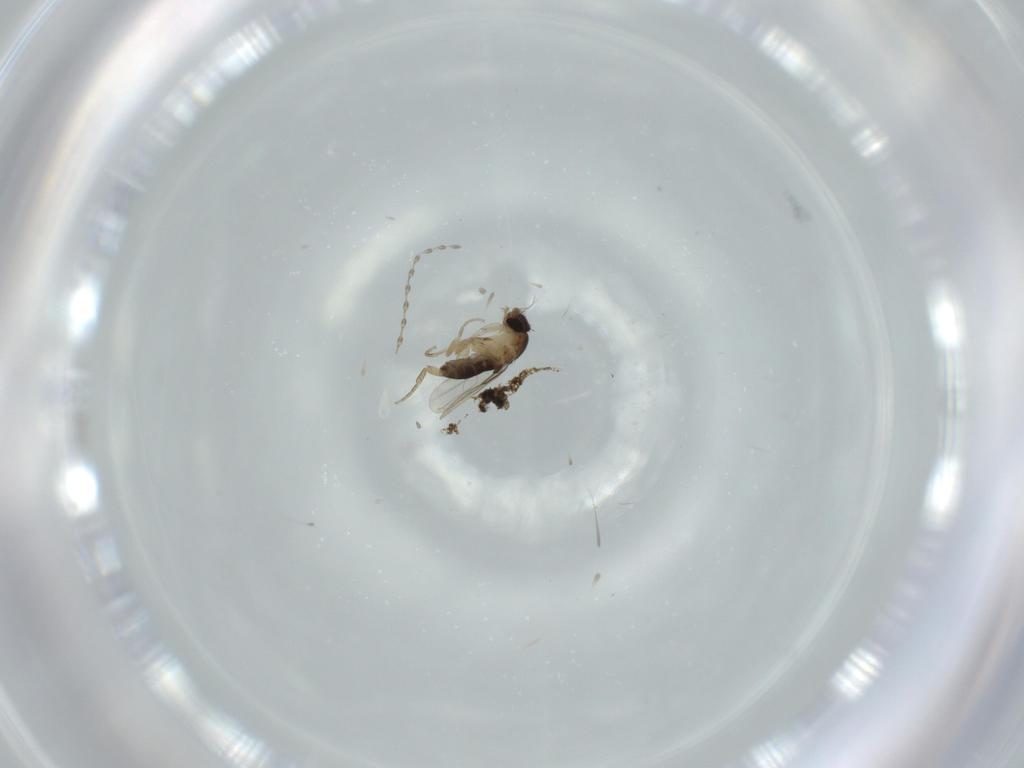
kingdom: Animalia
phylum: Arthropoda
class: Insecta
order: Diptera
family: Phoridae
